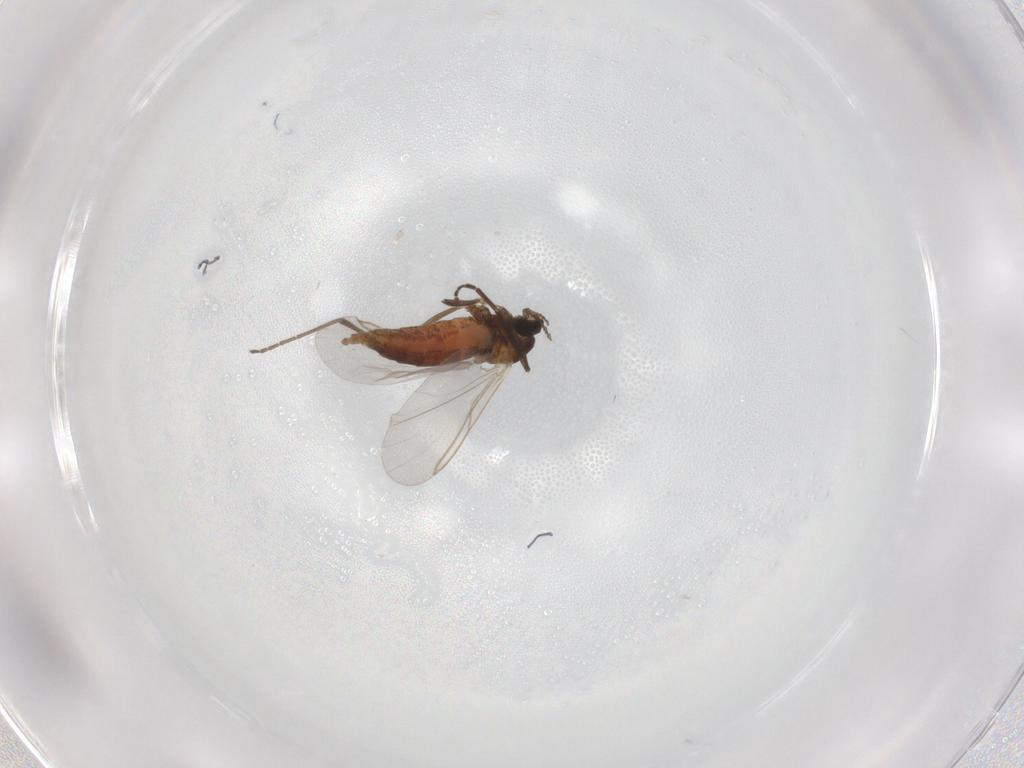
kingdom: Animalia
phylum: Arthropoda
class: Insecta
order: Diptera
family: Cecidomyiidae
